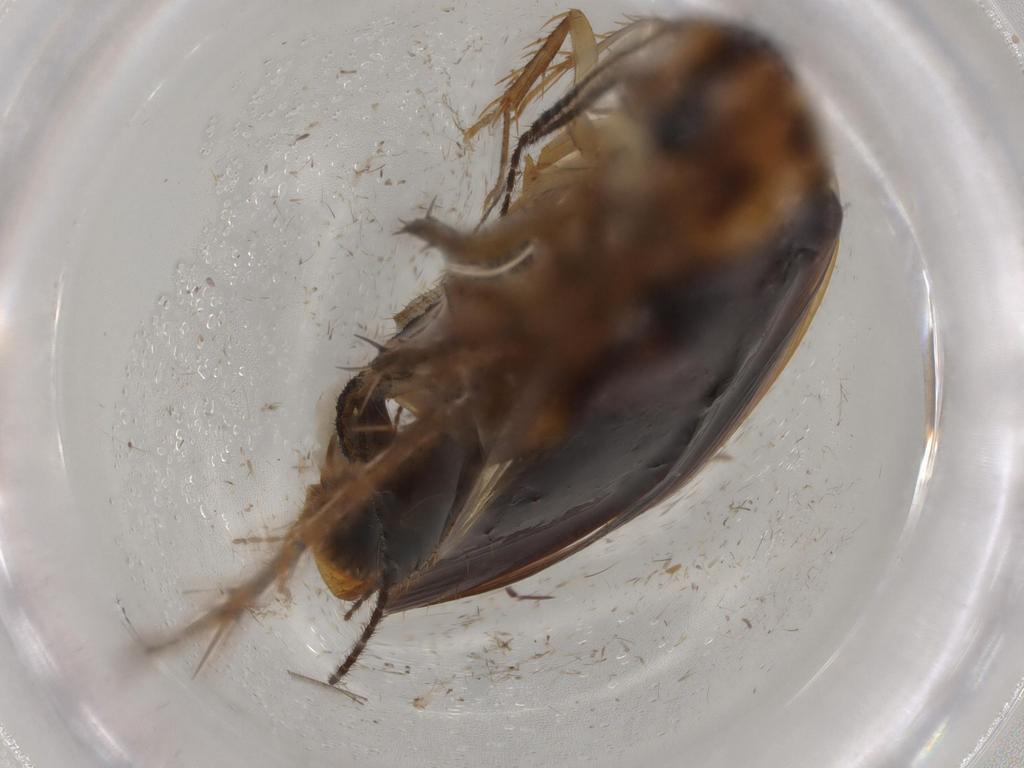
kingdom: Animalia
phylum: Arthropoda
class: Insecta
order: Blattodea
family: Ectobiidae
